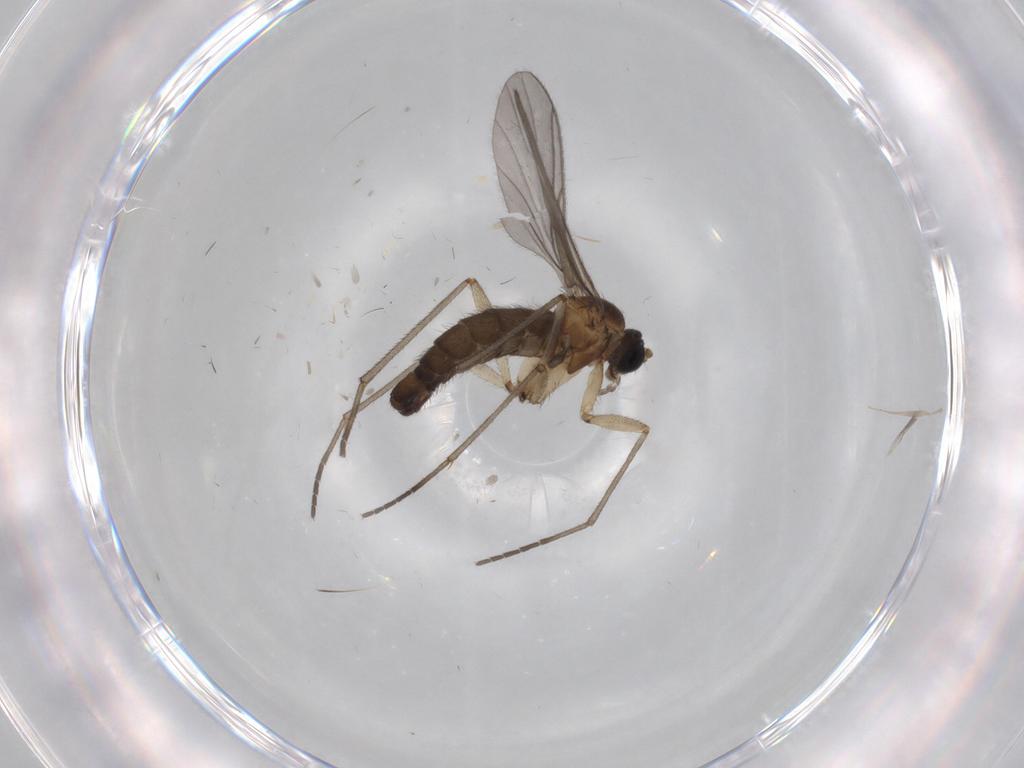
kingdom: Animalia
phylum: Arthropoda
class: Insecta
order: Diptera
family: Sciaridae
